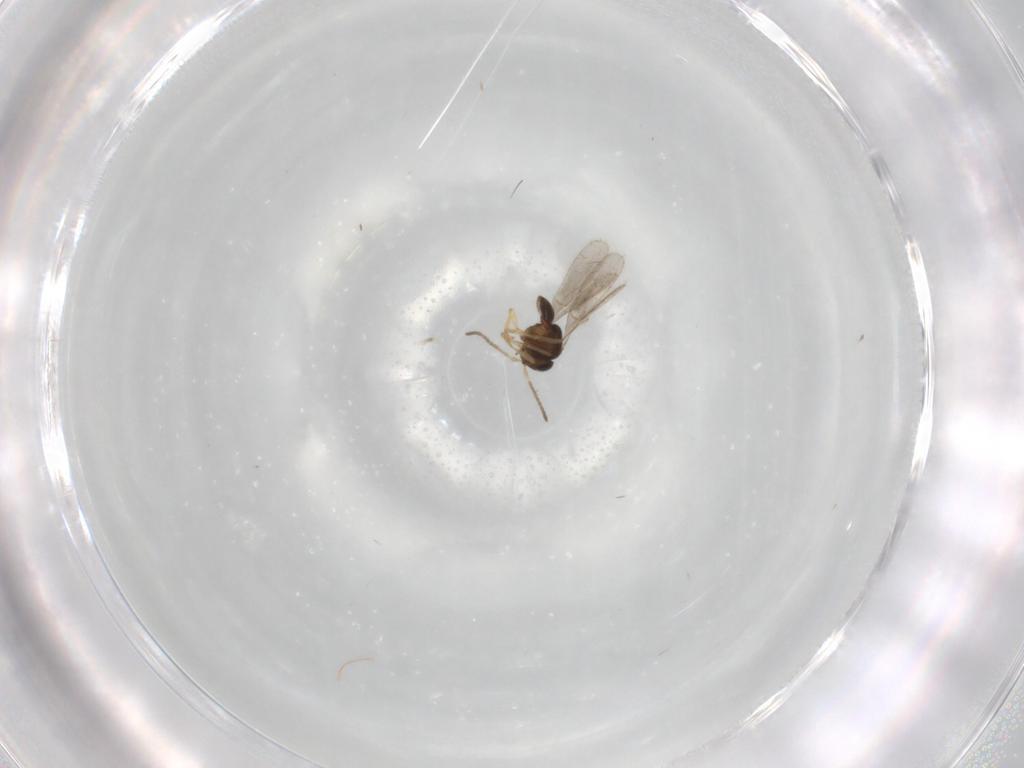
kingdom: Animalia
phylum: Arthropoda
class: Insecta
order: Hymenoptera
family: Scelionidae
